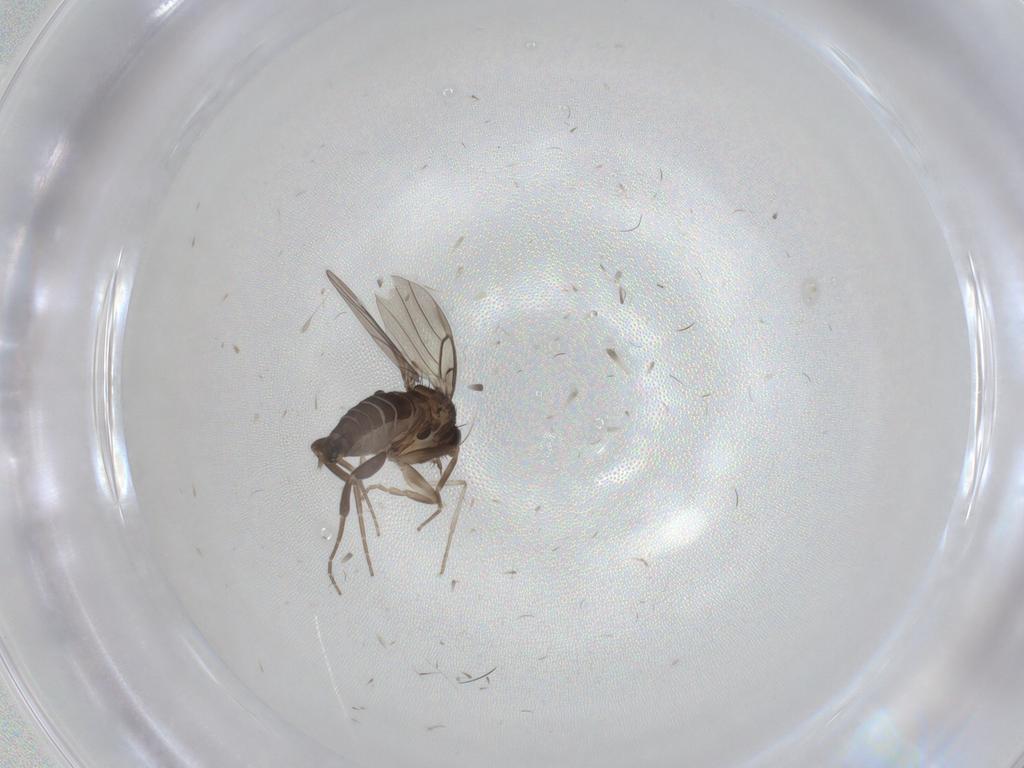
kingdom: Animalia
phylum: Arthropoda
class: Insecta
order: Diptera
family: Phoridae
